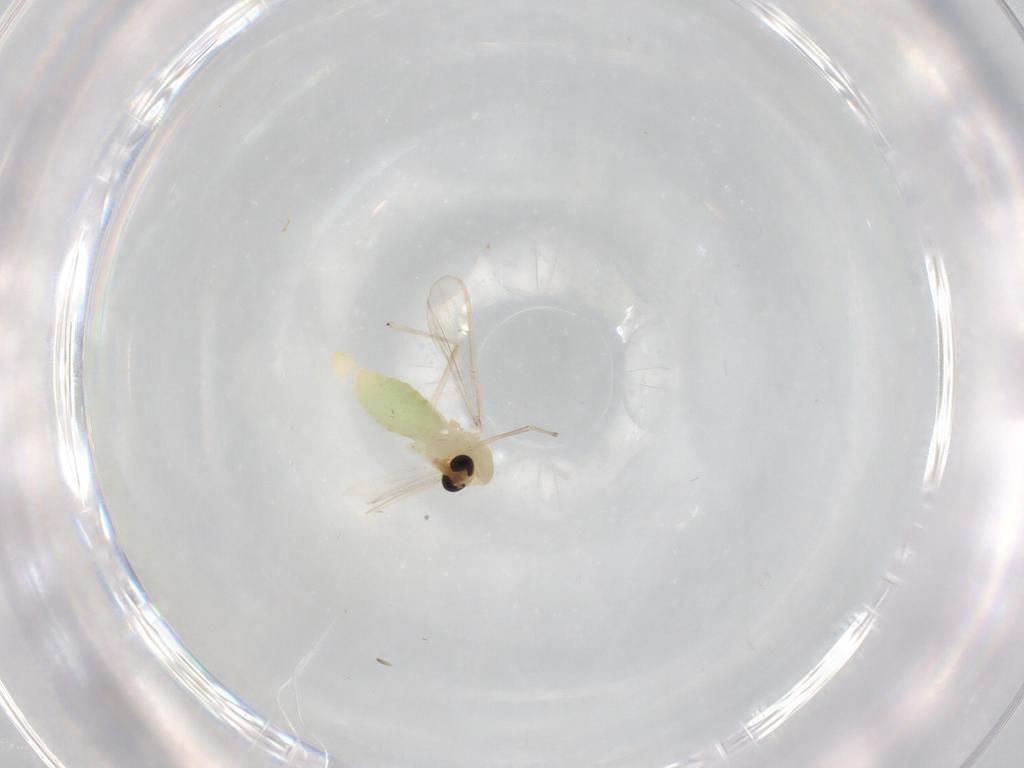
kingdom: Animalia
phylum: Arthropoda
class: Insecta
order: Diptera
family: Chironomidae
